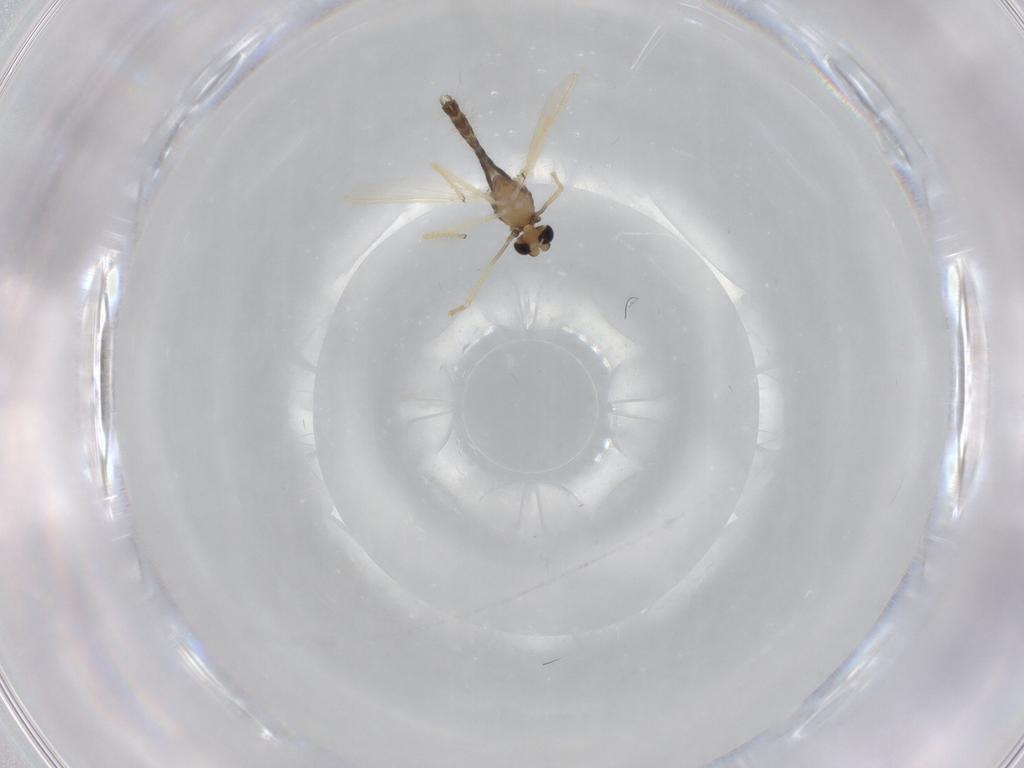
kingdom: Animalia
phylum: Arthropoda
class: Insecta
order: Diptera
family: Chironomidae
